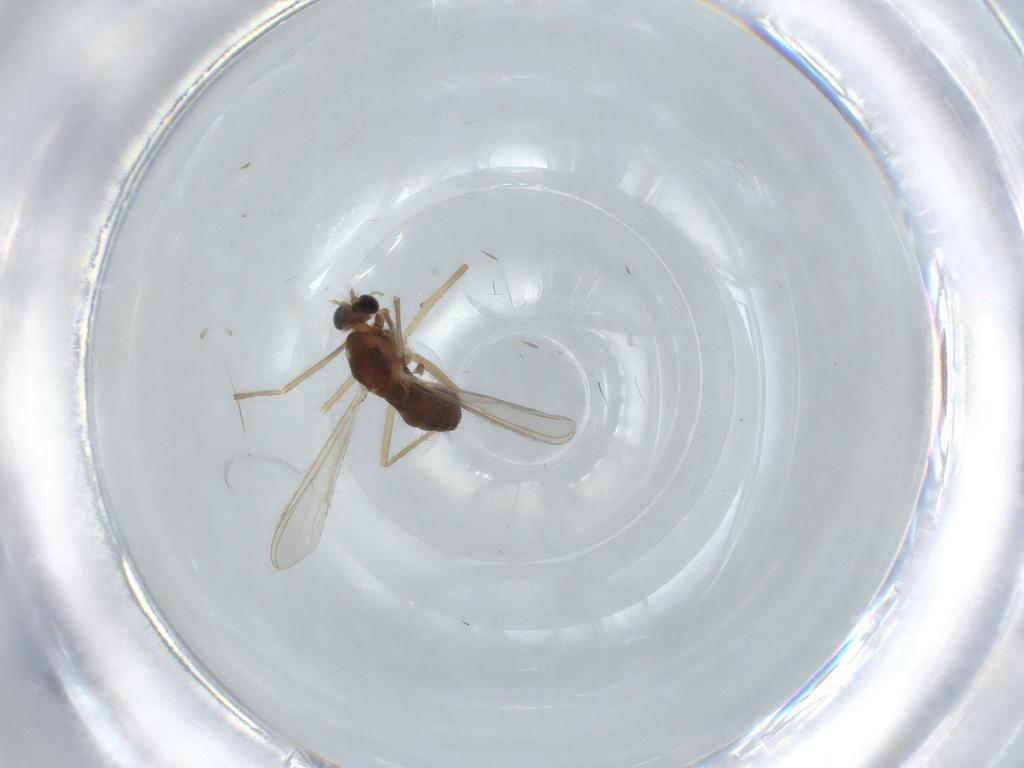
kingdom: Animalia
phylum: Arthropoda
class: Insecta
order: Diptera
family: Chironomidae
